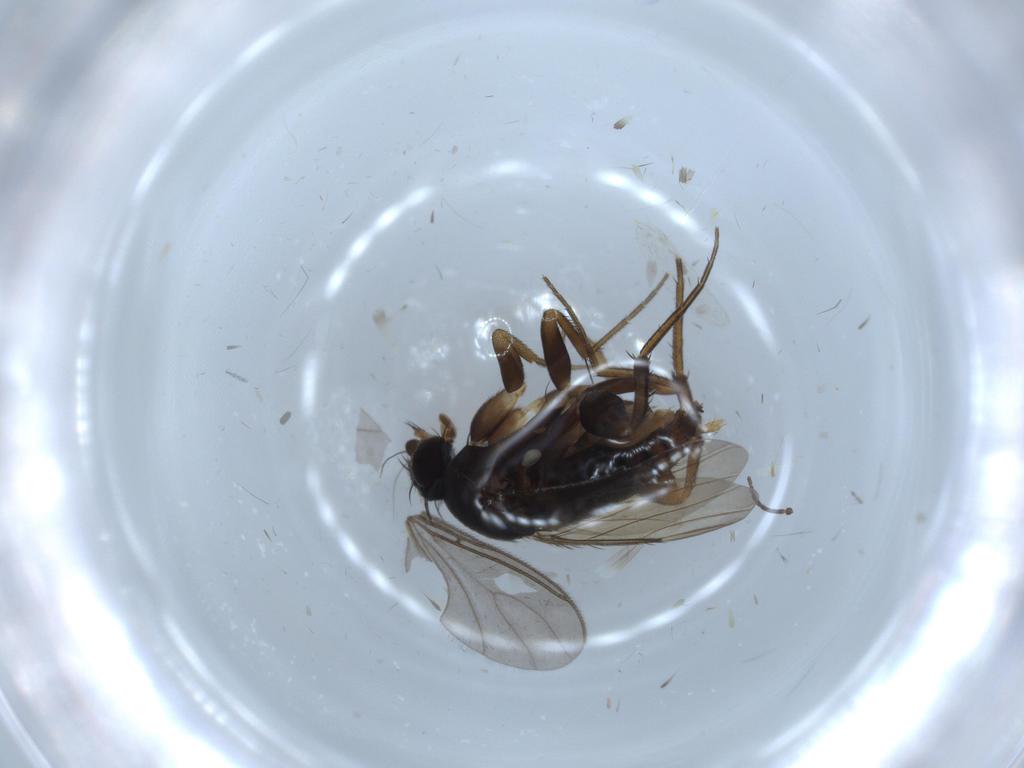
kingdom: Animalia
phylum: Arthropoda
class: Insecta
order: Diptera
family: Phoridae
